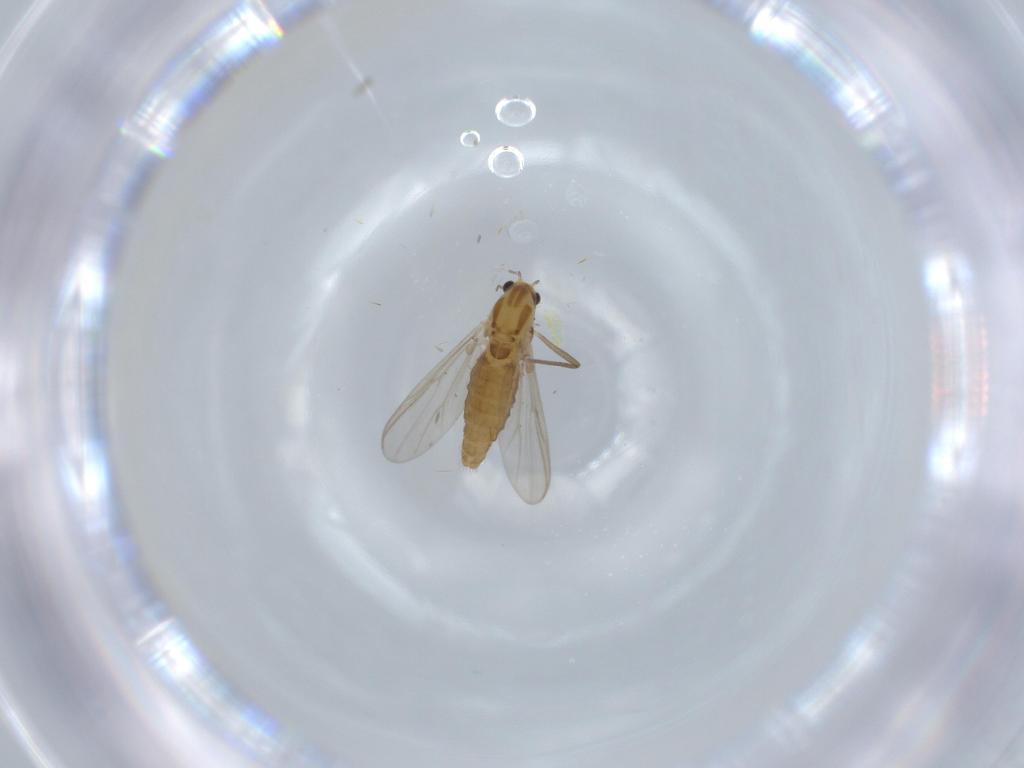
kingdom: Animalia
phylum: Arthropoda
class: Insecta
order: Diptera
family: Chironomidae
